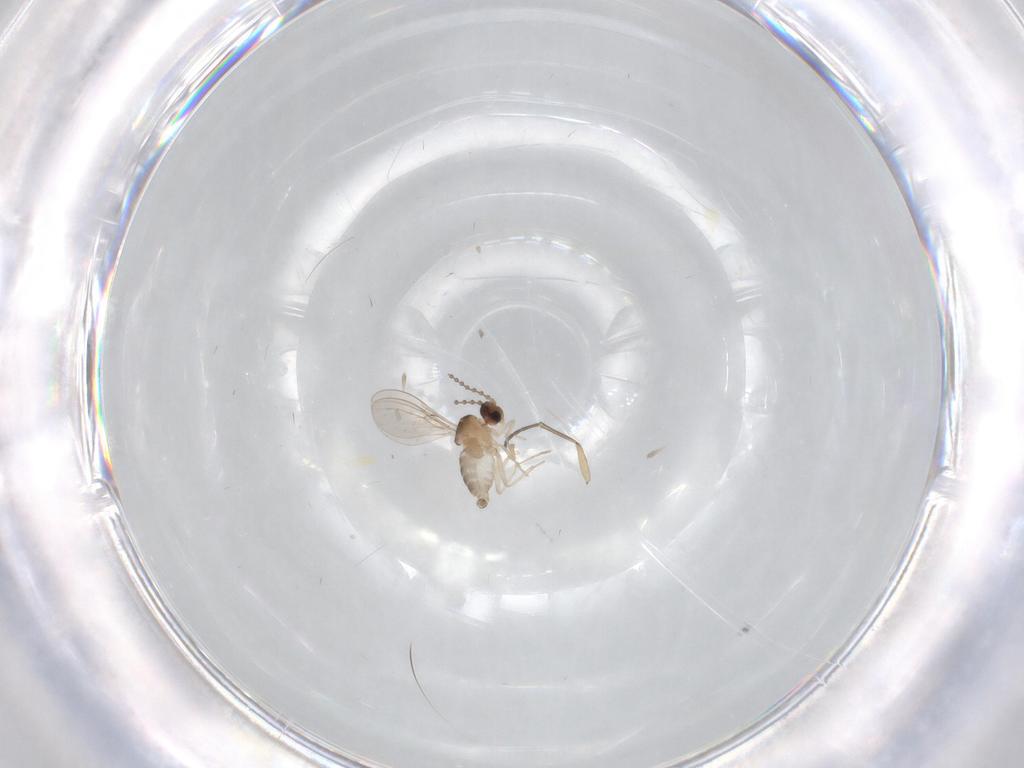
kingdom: Animalia
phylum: Arthropoda
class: Insecta
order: Diptera
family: Cecidomyiidae
